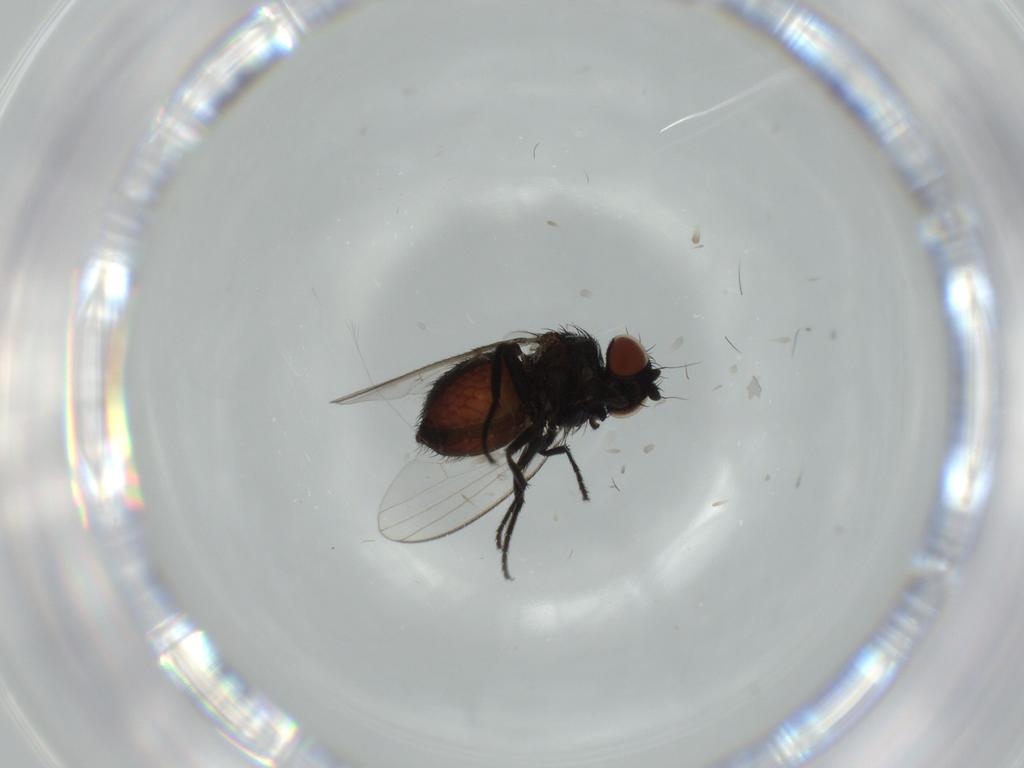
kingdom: Animalia
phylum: Arthropoda
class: Insecta
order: Diptera
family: Milichiidae
